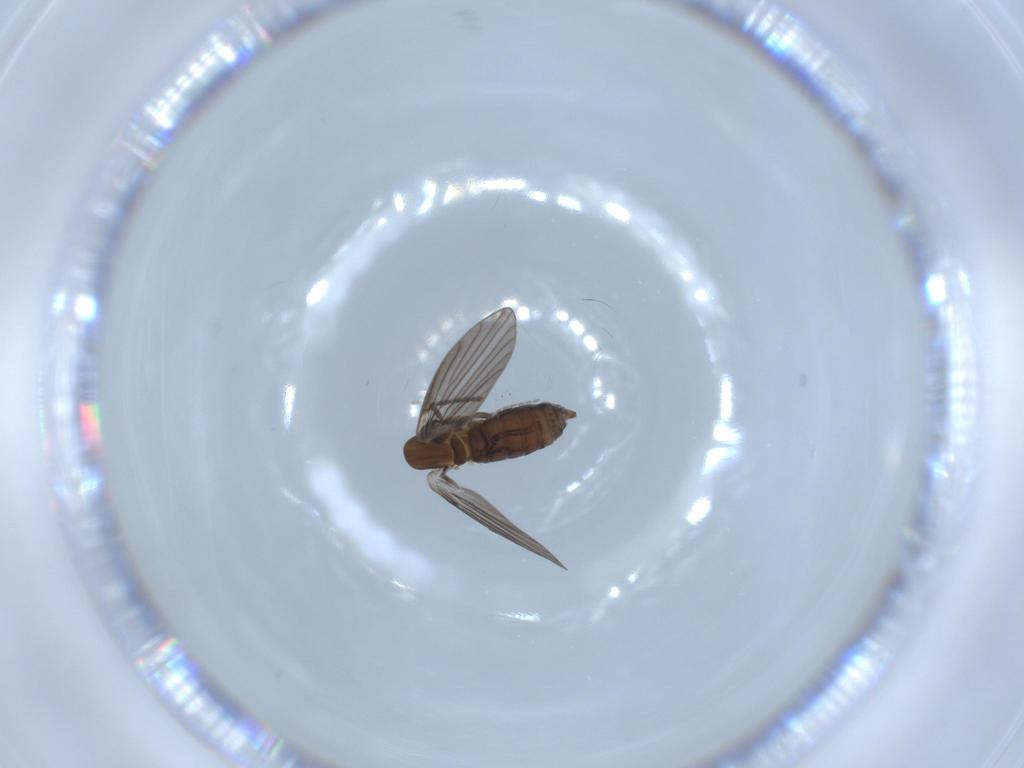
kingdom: Animalia
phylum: Arthropoda
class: Insecta
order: Diptera
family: Psychodidae
